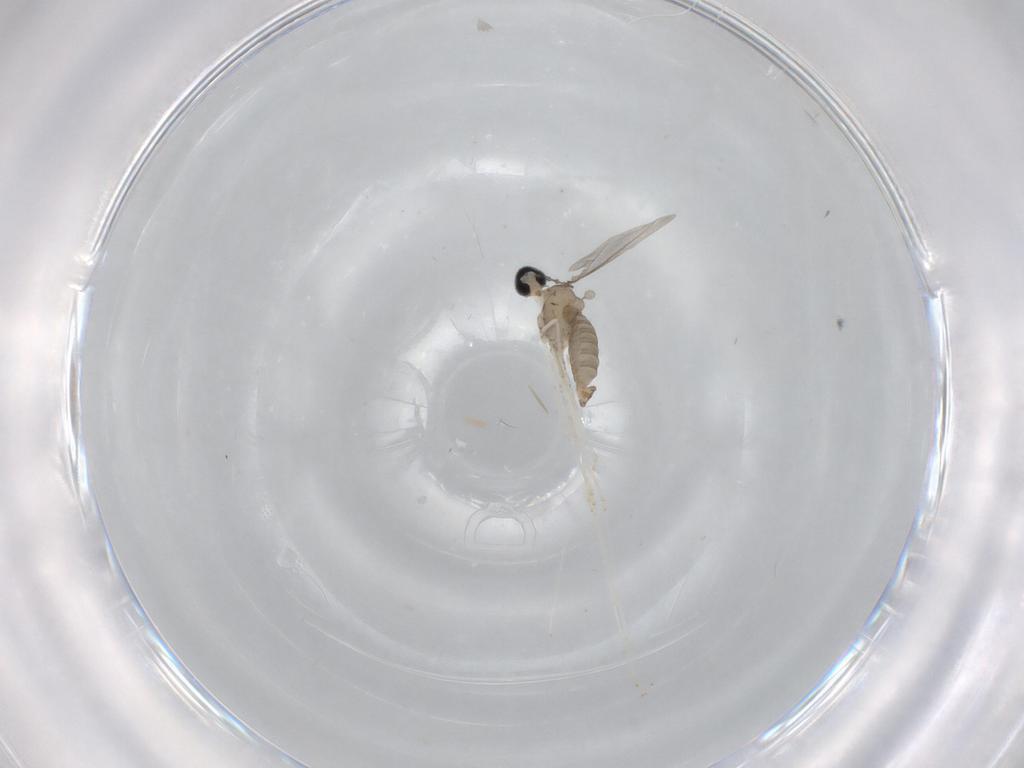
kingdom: Animalia
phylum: Arthropoda
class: Insecta
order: Diptera
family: Cecidomyiidae
